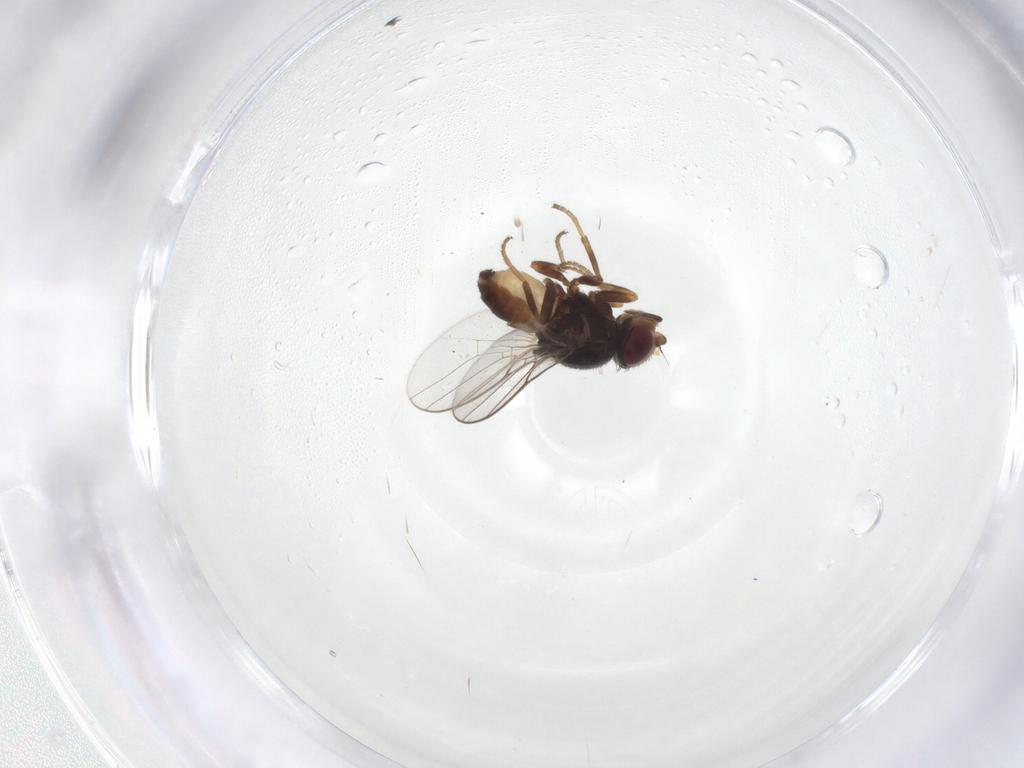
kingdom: Animalia
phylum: Arthropoda
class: Insecta
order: Diptera
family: Chloropidae
